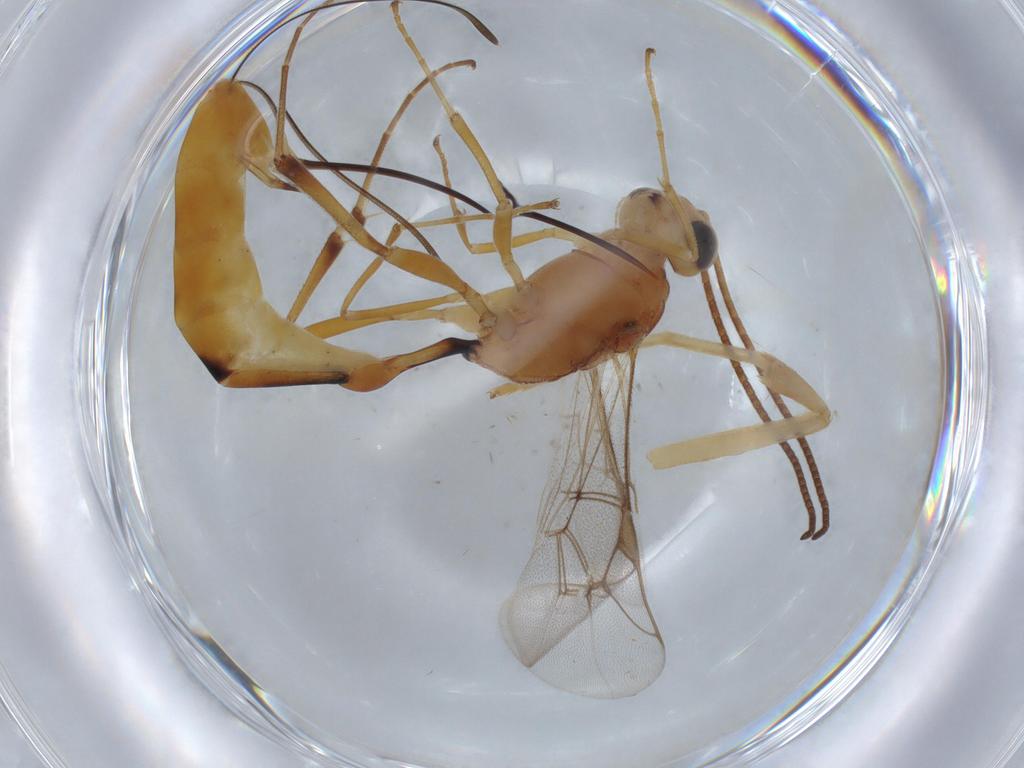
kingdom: Animalia
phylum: Arthropoda
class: Insecta
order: Hymenoptera
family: Ichneumonidae
